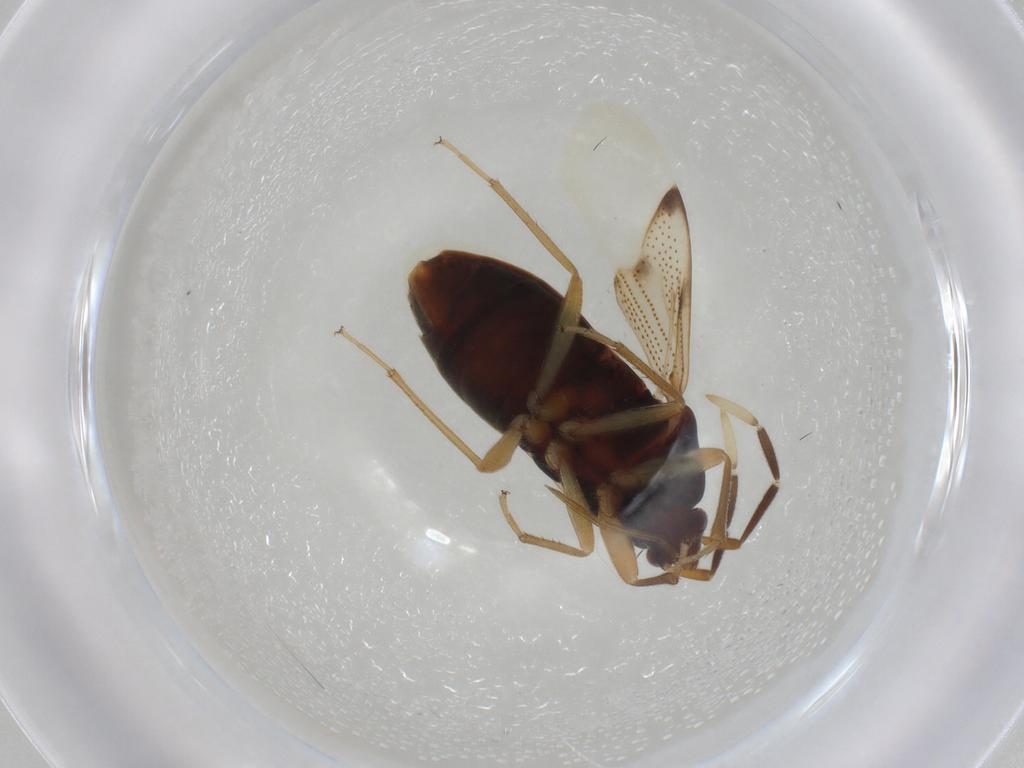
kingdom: Animalia
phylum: Arthropoda
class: Insecta
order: Hemiptera
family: Rhyparochromidae
